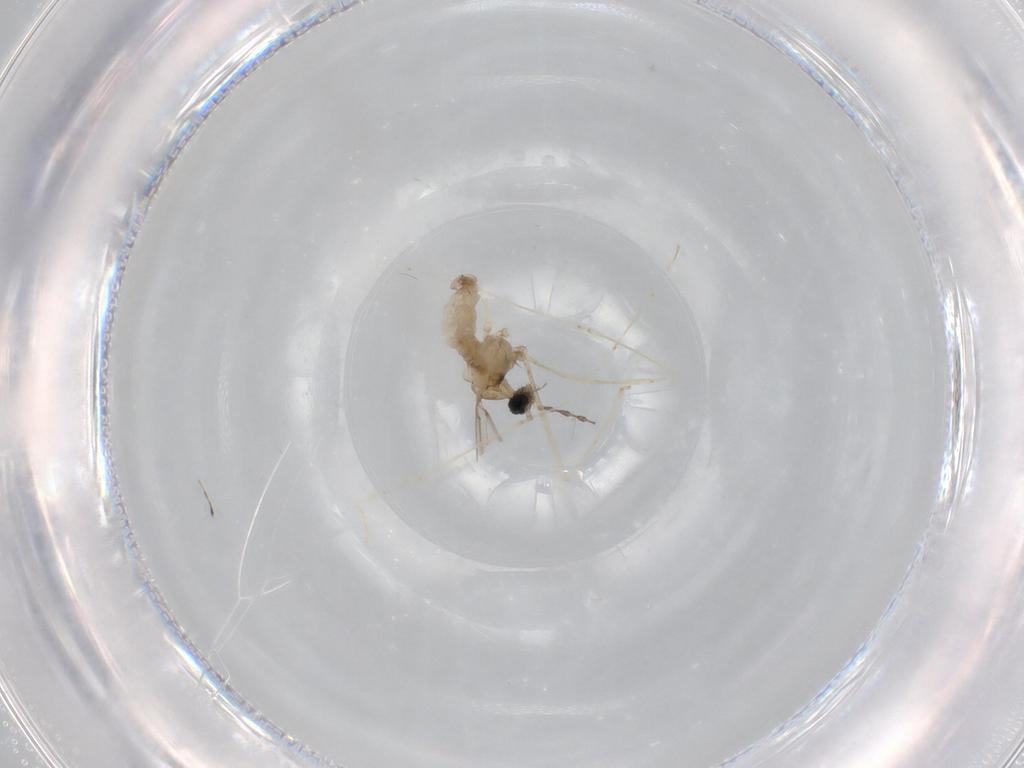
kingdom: Animalia
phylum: Arthropoda
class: Insecta
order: Diptera
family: Cecidomyiidae
